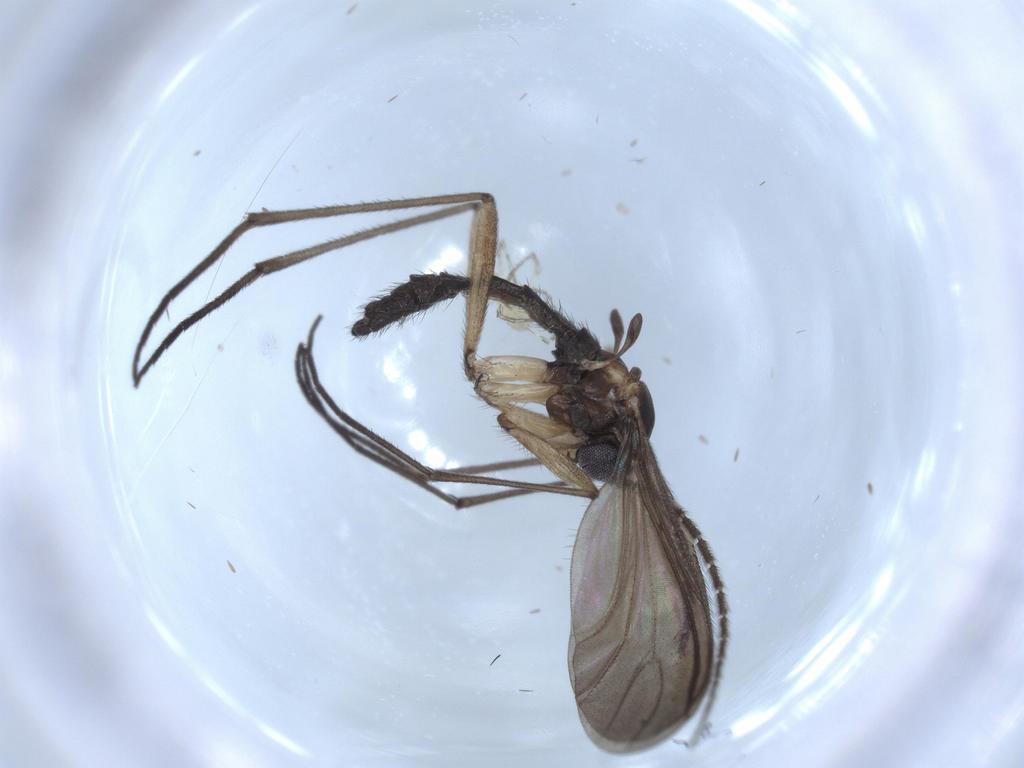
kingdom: Animalia
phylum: Arthropoda
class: Insecta
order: Diptera
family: Sciaridae
